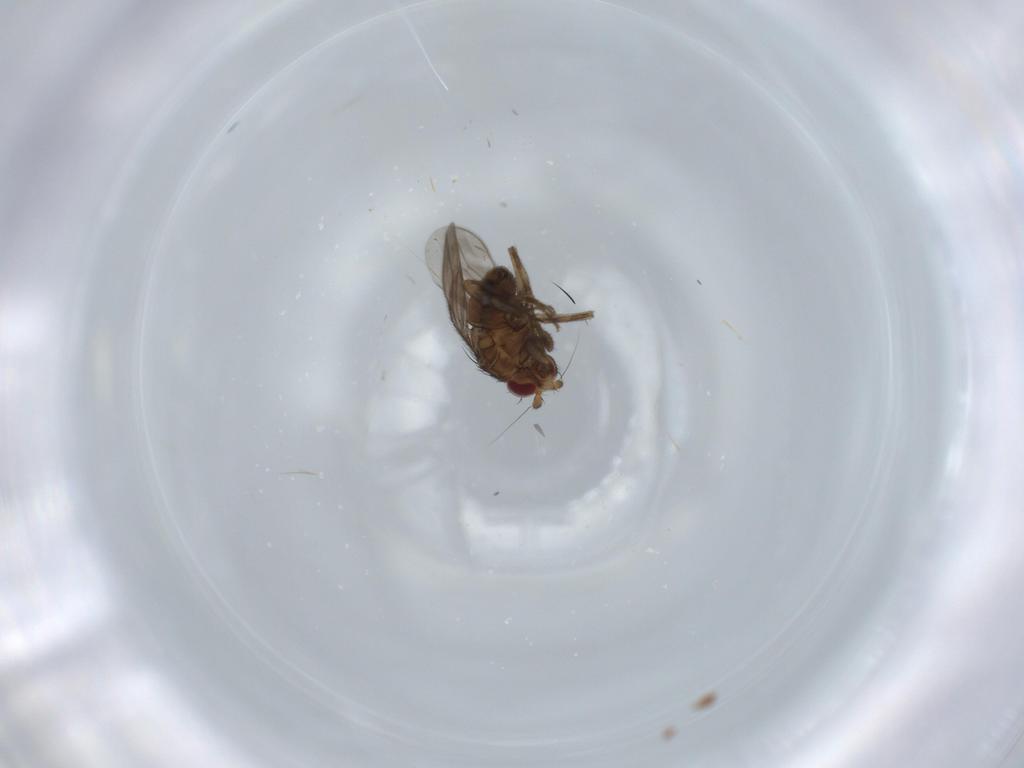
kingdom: Animalia
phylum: Arthropoda
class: Insecta
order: Diptera
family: Sphaeroceridae
